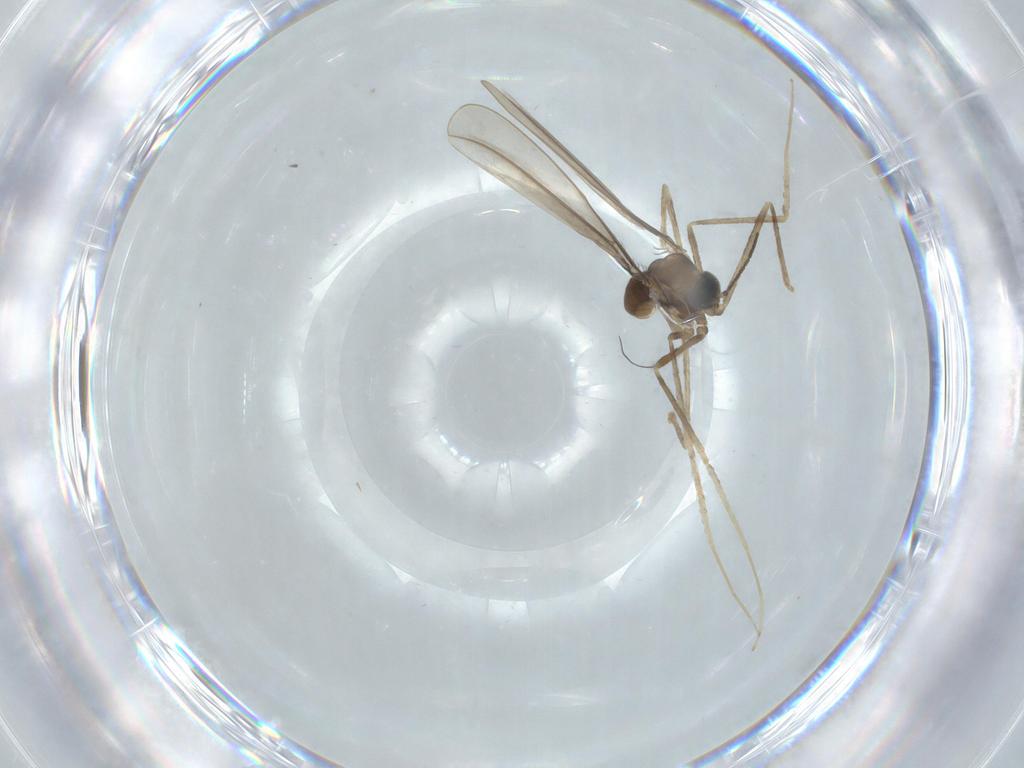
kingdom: Animalia
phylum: Arthropoda
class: Insecta
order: Diptera
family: Cecidomyiidae
